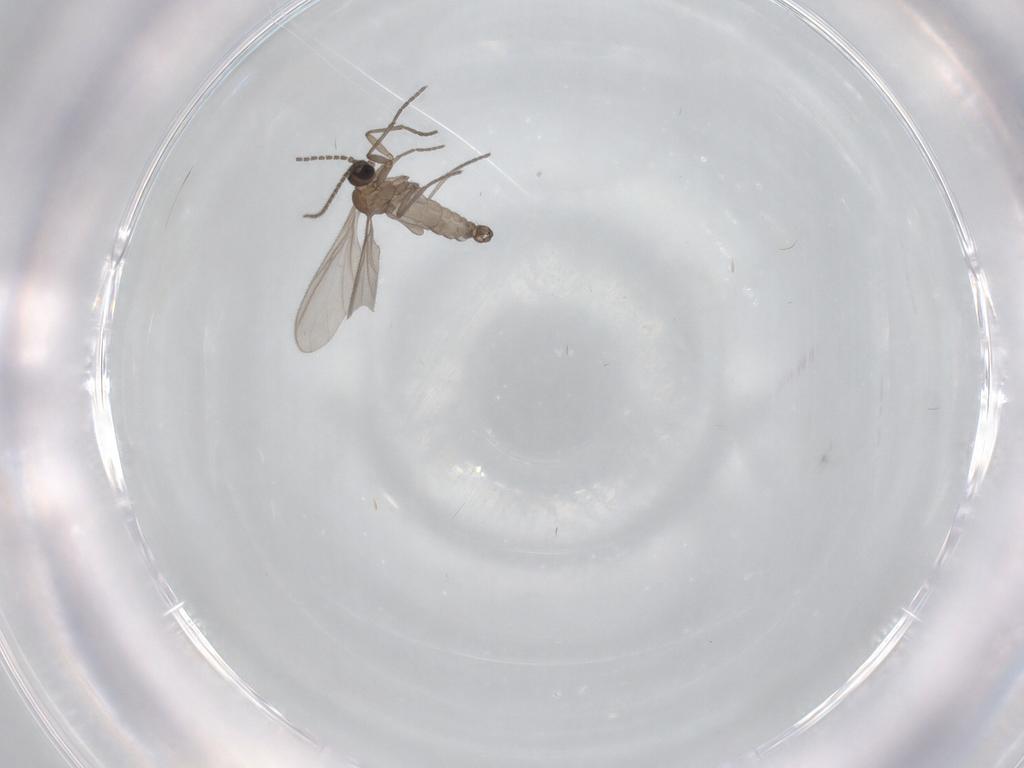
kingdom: Animalia
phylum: Arthropoda
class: Insecta
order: Diptera
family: Sciaridae
